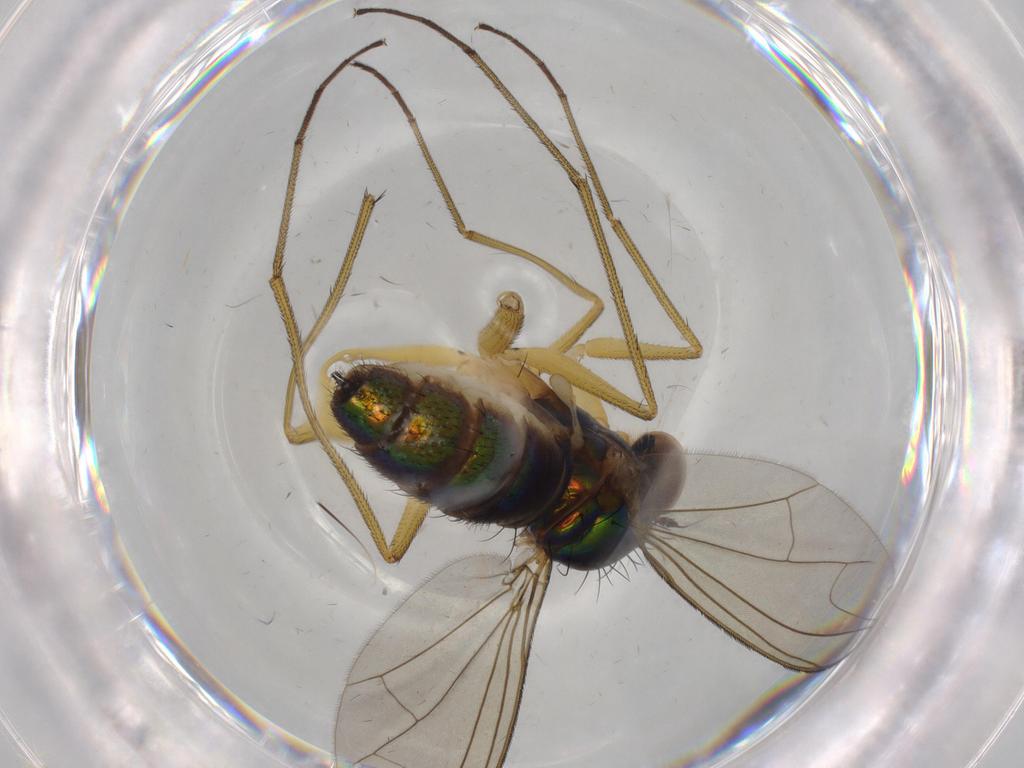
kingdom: Animalia
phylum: Arthropoda
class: Insecta
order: Diptera
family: Dolichopodidae
